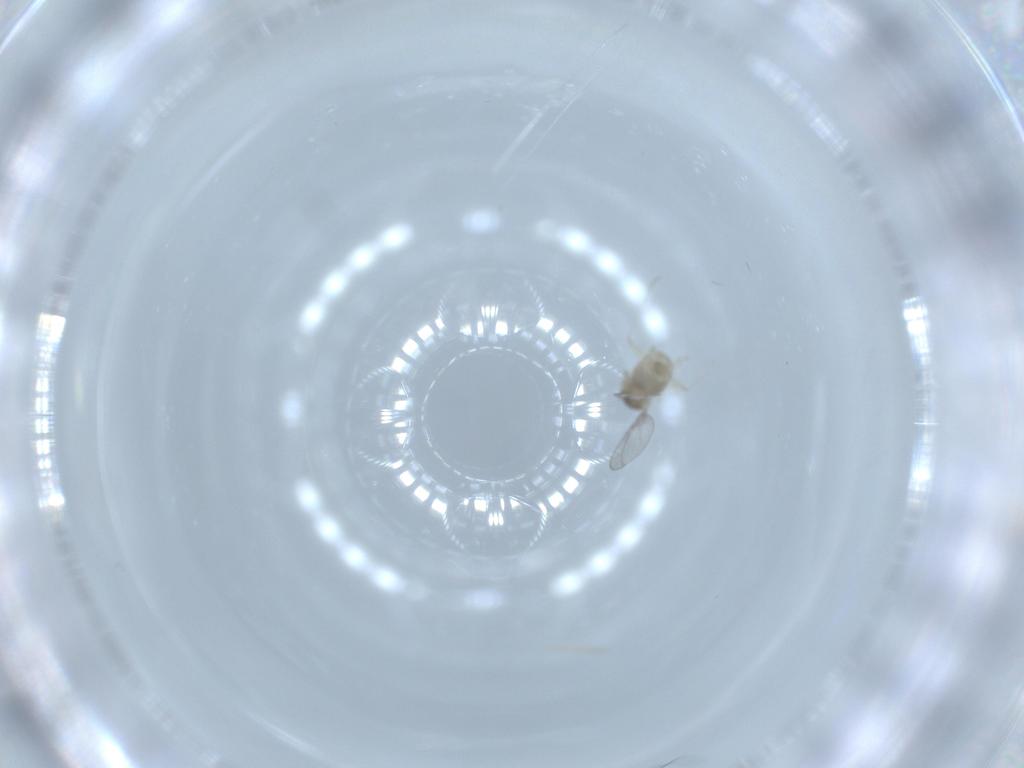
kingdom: Animalia
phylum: Arthropoda
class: Insecta
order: Diptera
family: Cecidomyiidae
